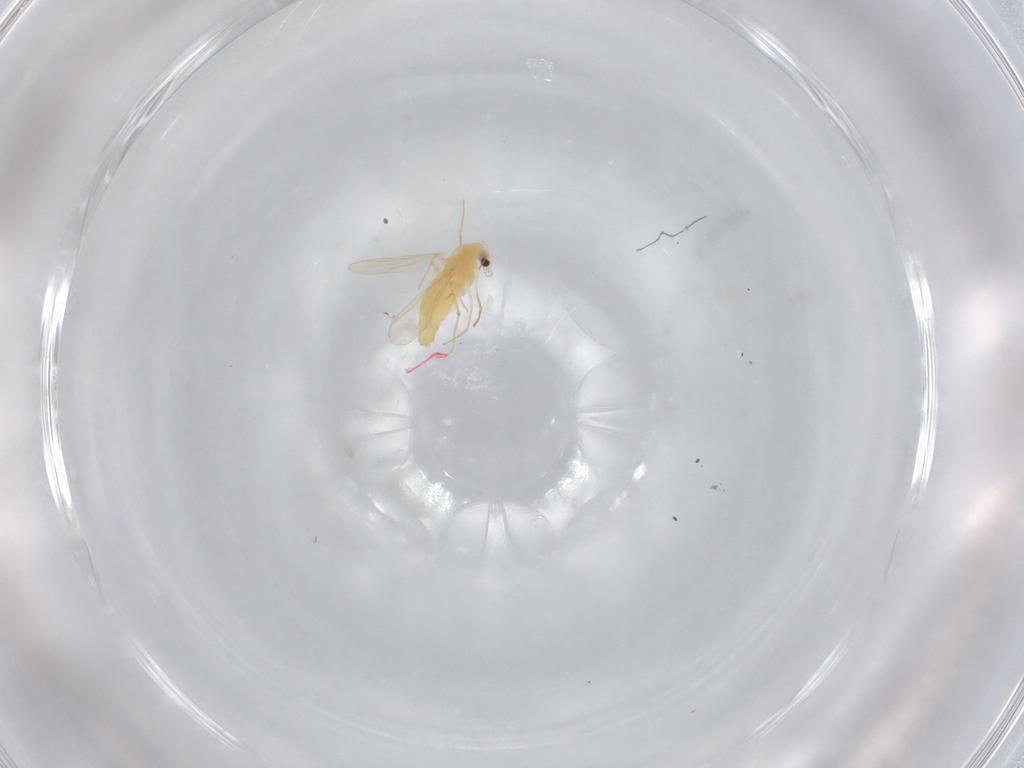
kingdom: Animalia
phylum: Arthropoda
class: Insecta
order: Diptera
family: Chironomidae
